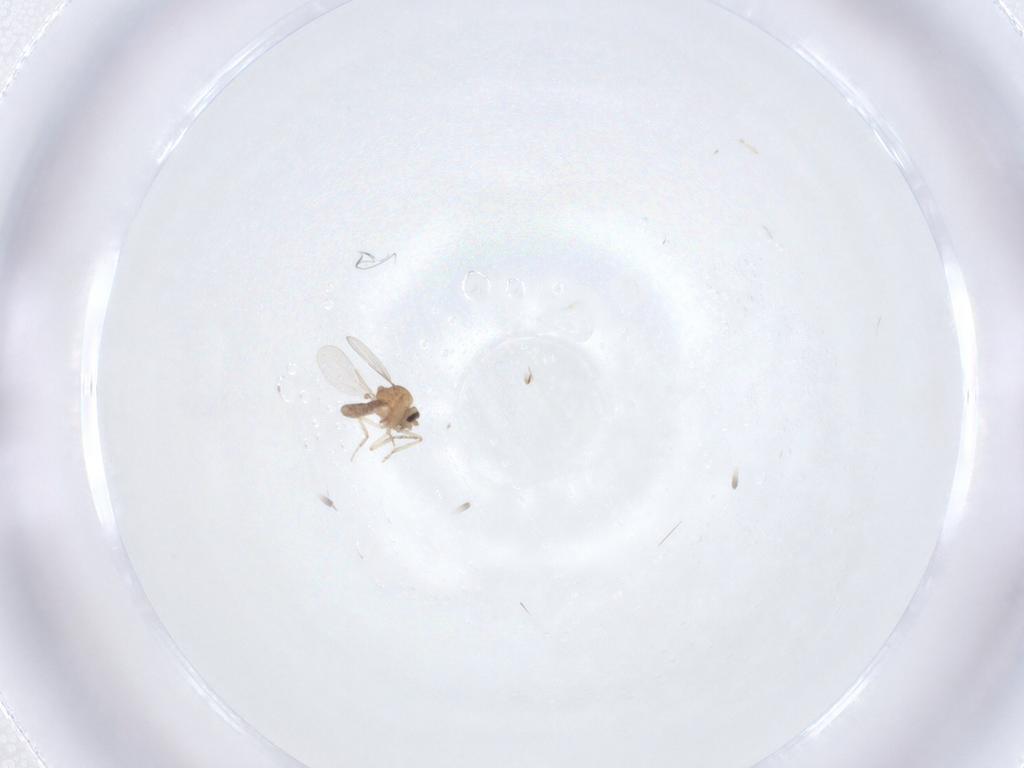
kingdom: Animalia
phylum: Arthropoda
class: Insecta
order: Diptera
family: Ceratopogonidae
